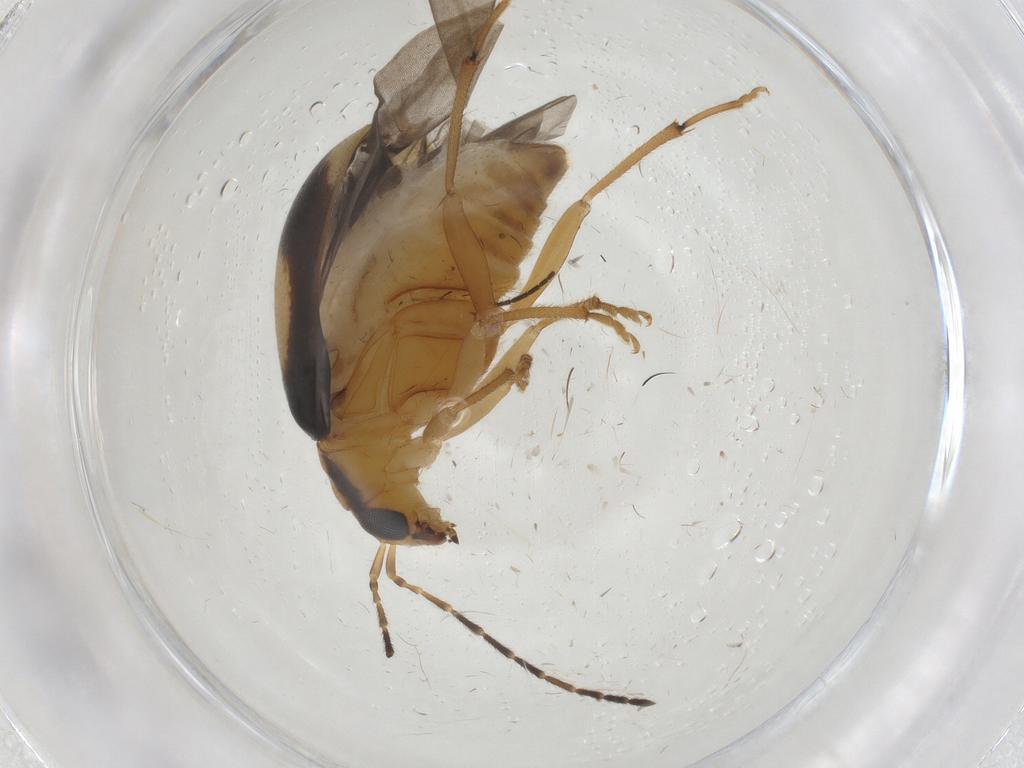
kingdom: Animalia
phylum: Arthropoda
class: Insecta
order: Coleoptera
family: Chrysomelidae
